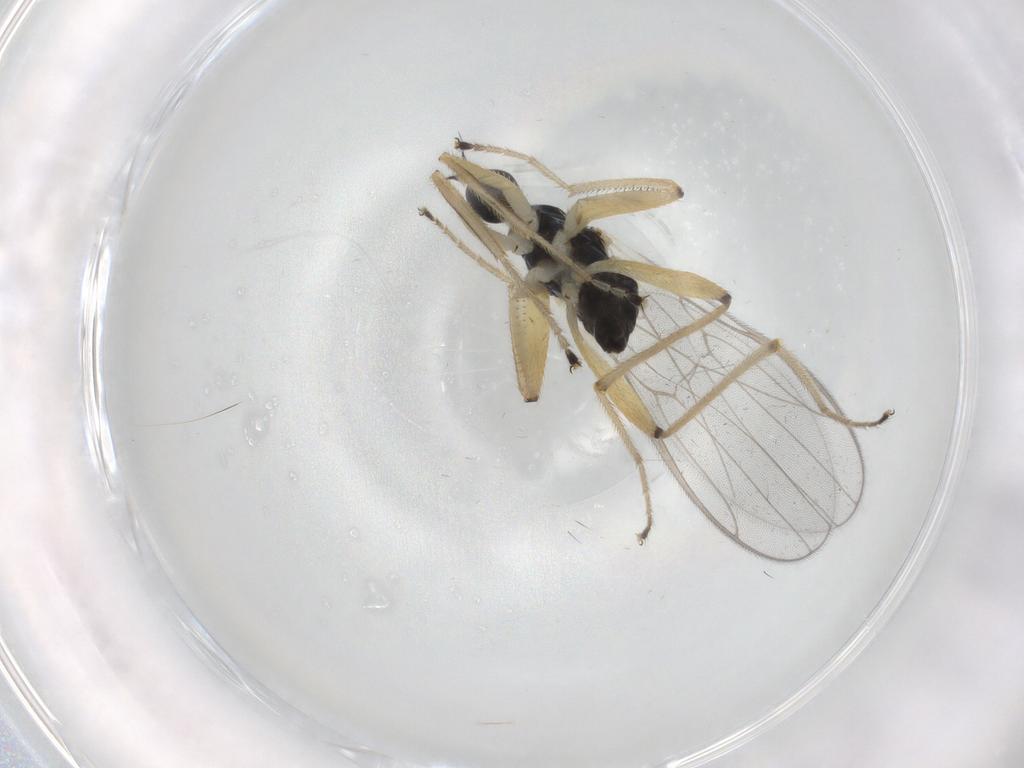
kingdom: Animalia
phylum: Arthropoda
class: Insecta
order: Diptera
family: Hybotidae
